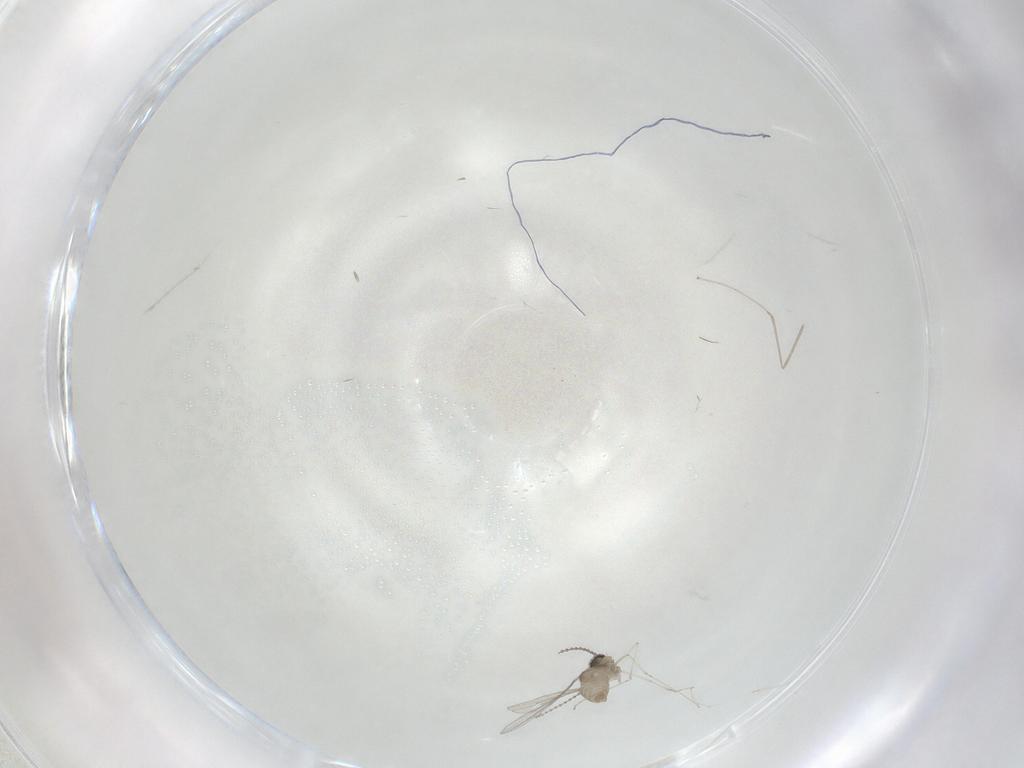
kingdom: Animalia
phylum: Arthropoda
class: Insecta
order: Diptera
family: Cecidomyiidae
